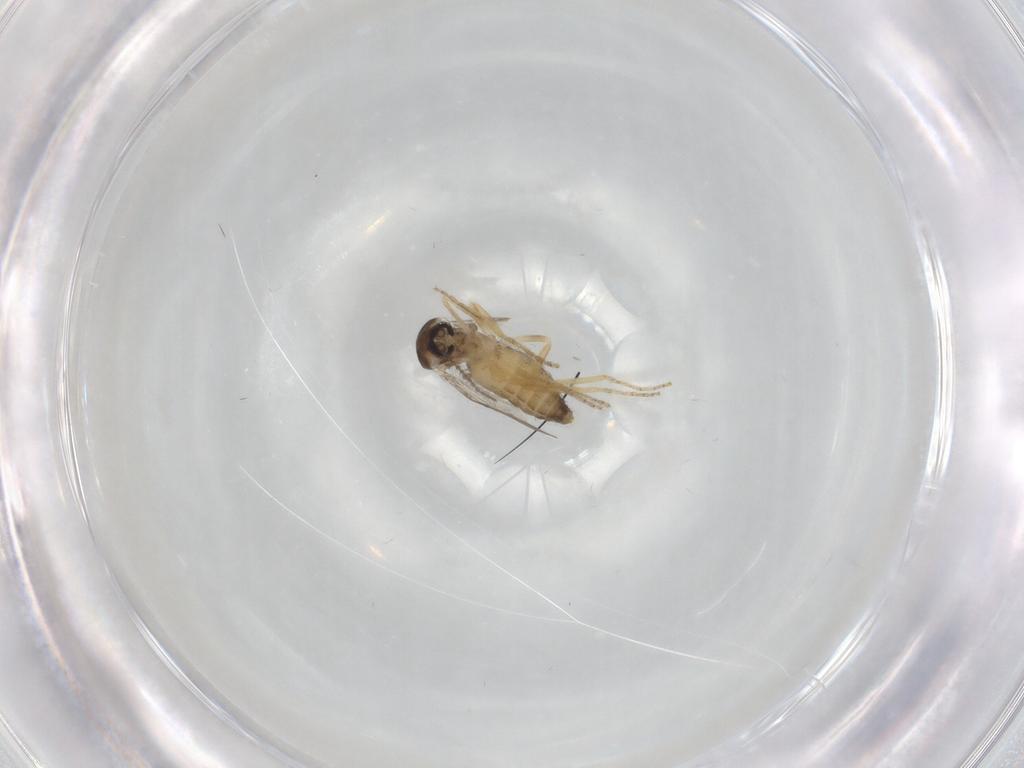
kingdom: Animalia
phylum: Arthropoda
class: Insecta
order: Diptera
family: Ceratopogonidae
